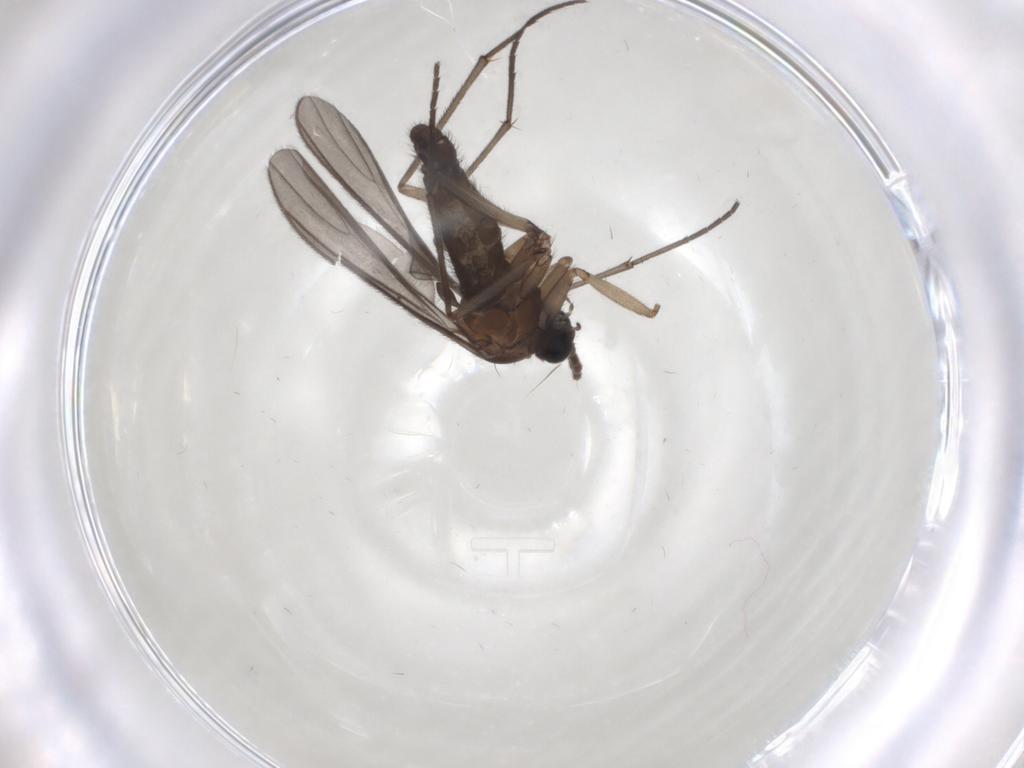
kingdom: Animalia
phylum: Arthropoda
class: Insecta
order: Diptera
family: Sciaridae
